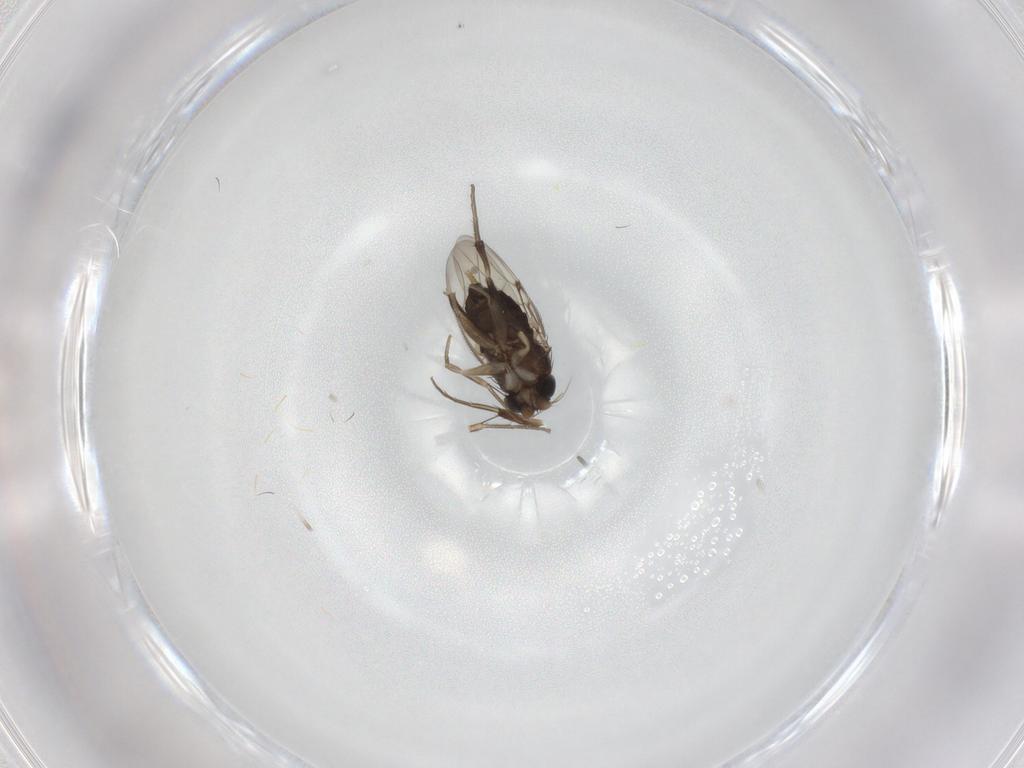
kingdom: Animalia
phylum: Arthropoda
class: Insecta
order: Diptera
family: Phoridae
